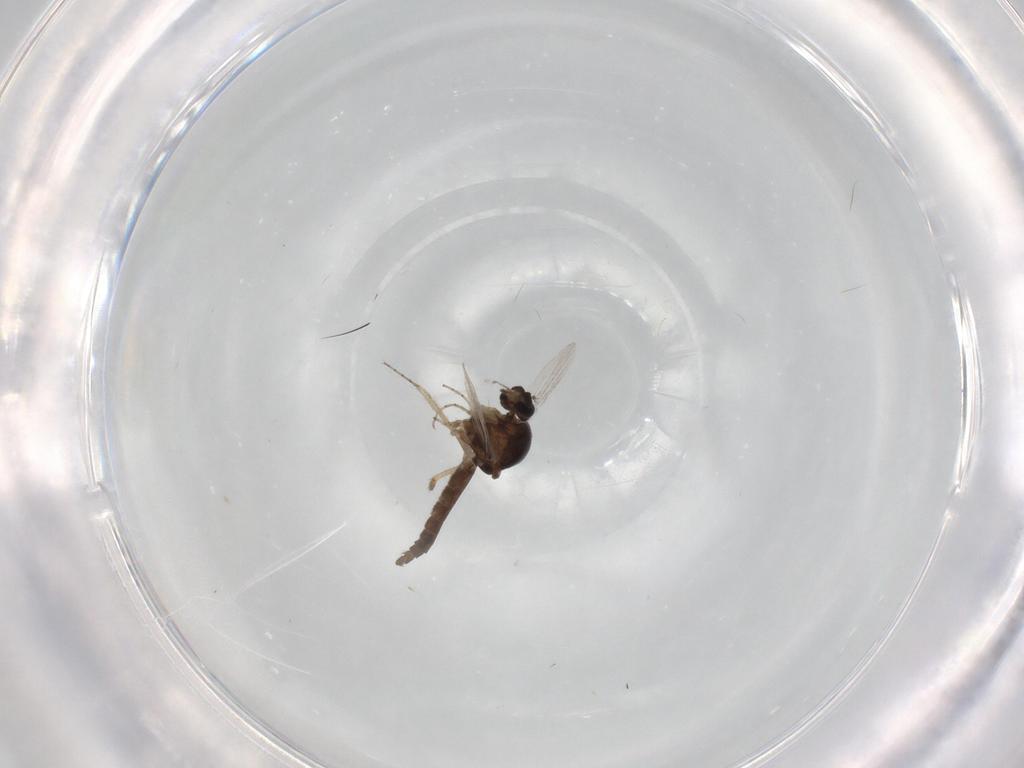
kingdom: Animalia
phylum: Arthropoda
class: Insecta
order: Diptera
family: Ceratopogonidae
